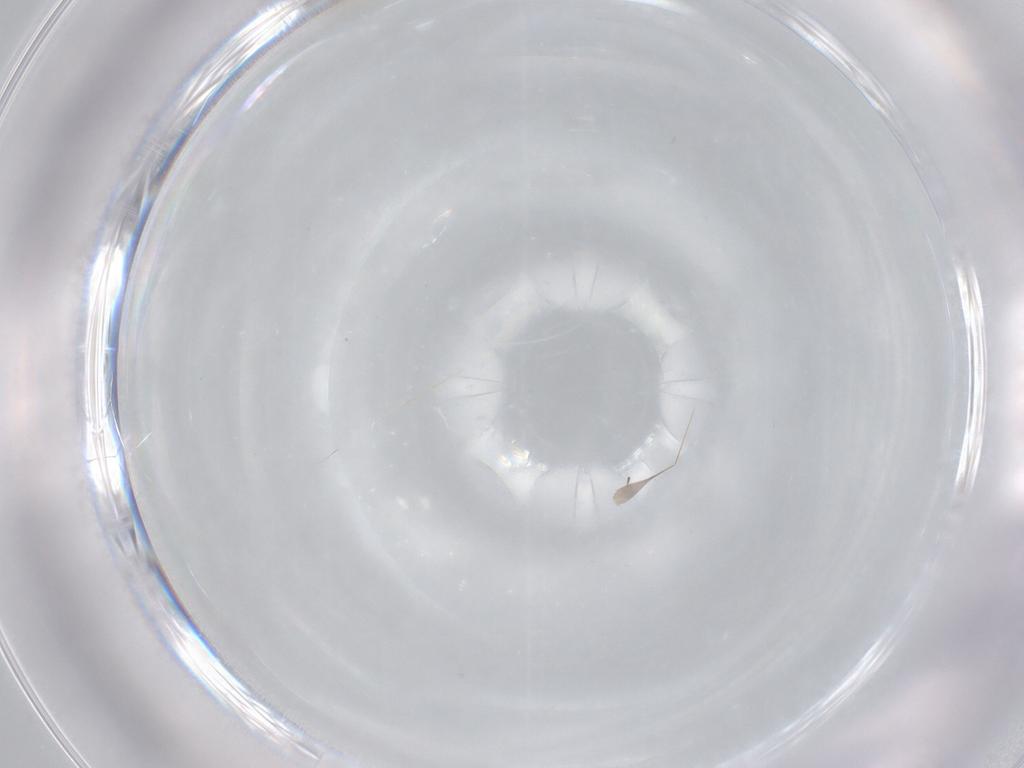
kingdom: Animalia
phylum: Arthropoda
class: Insecta
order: Diptera
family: Cecidomyiidae
